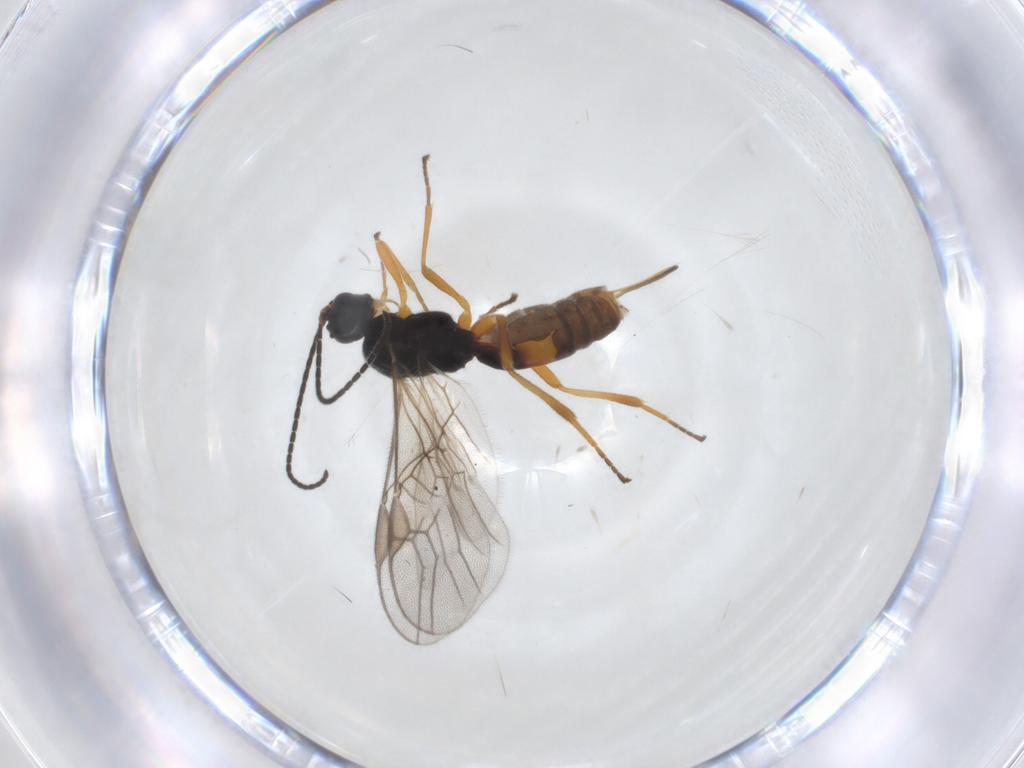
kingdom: Animalia
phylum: Arthropoda
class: Insecta
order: Hymenoptera
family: Braconidae
